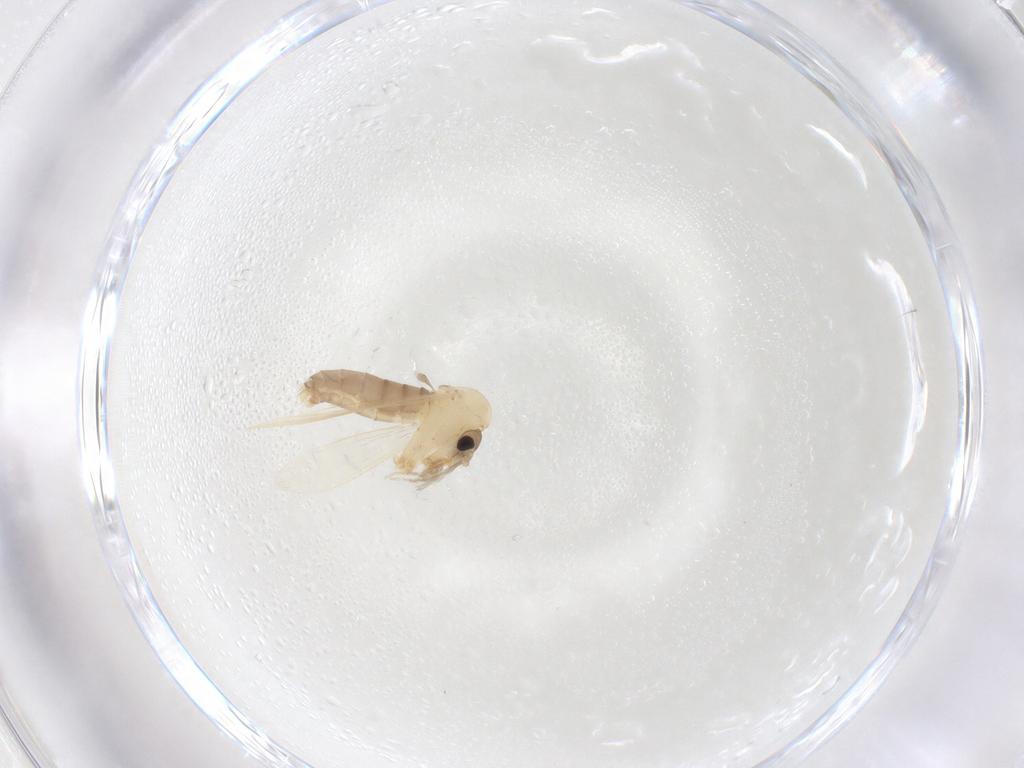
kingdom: Animalia
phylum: Arthropoda
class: Insecta
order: Diptera
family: Psychodidae
